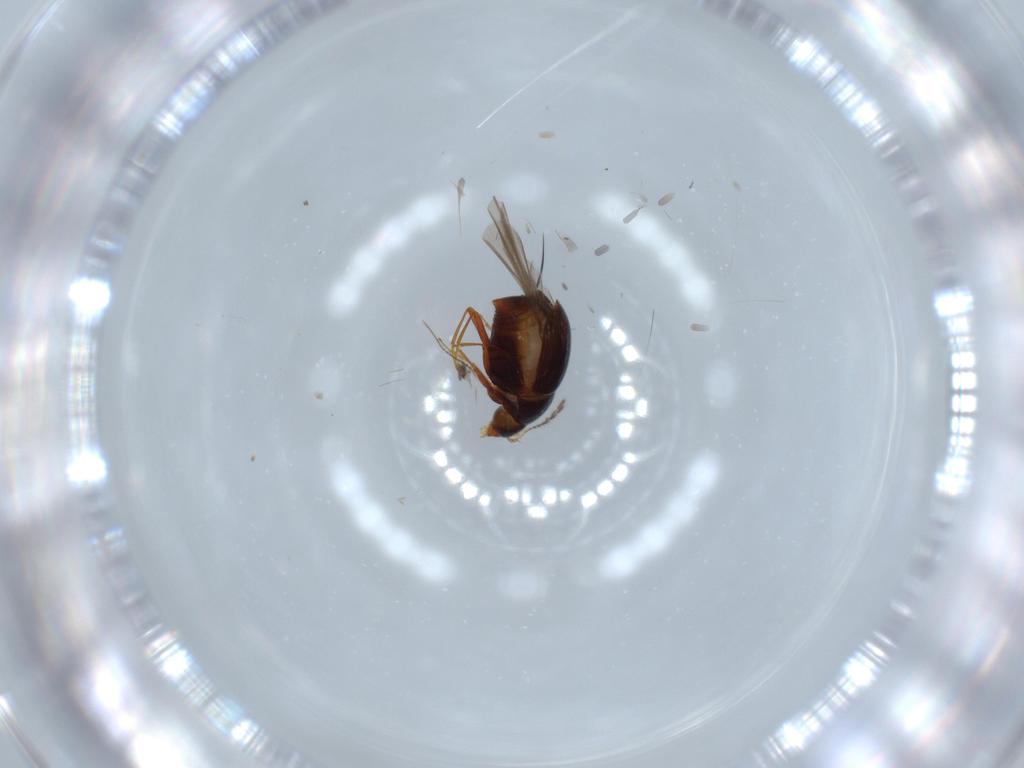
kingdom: Animalia
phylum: Arthropoda
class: Insecta
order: Coleoptera
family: Staphylinidae
